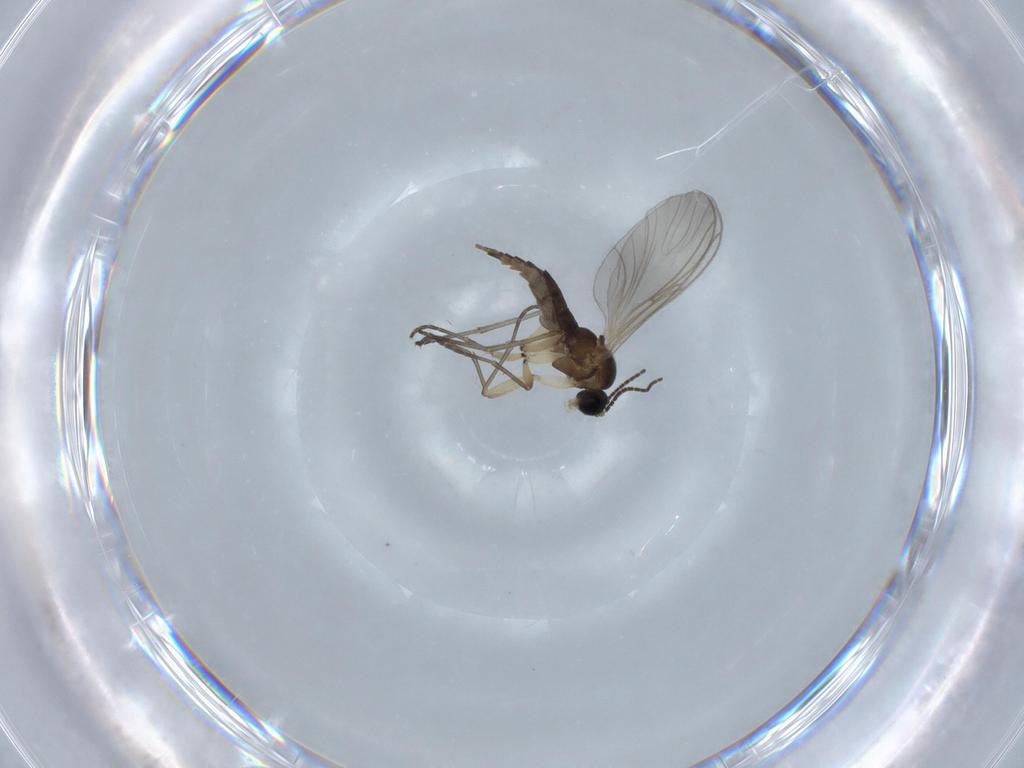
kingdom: Animalia
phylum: Arthropoda
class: Insecta
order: Diptera
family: Sciaridae
